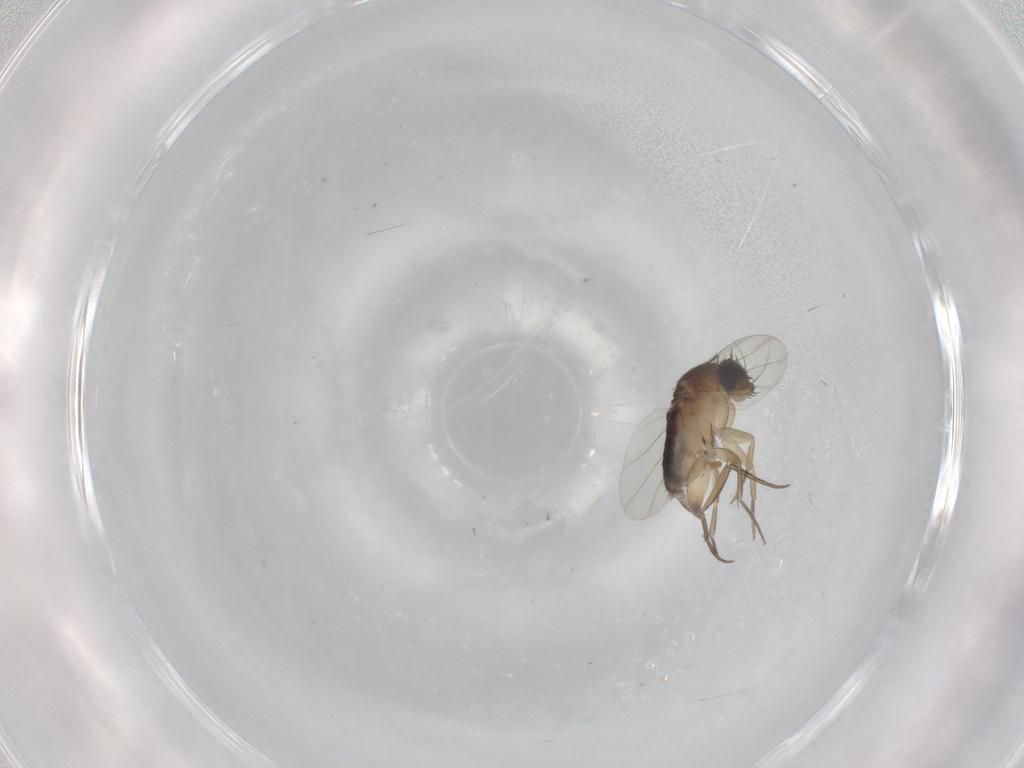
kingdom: Animalia
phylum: Arthropoda
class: Insecta
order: Diptera
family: Phoridae
